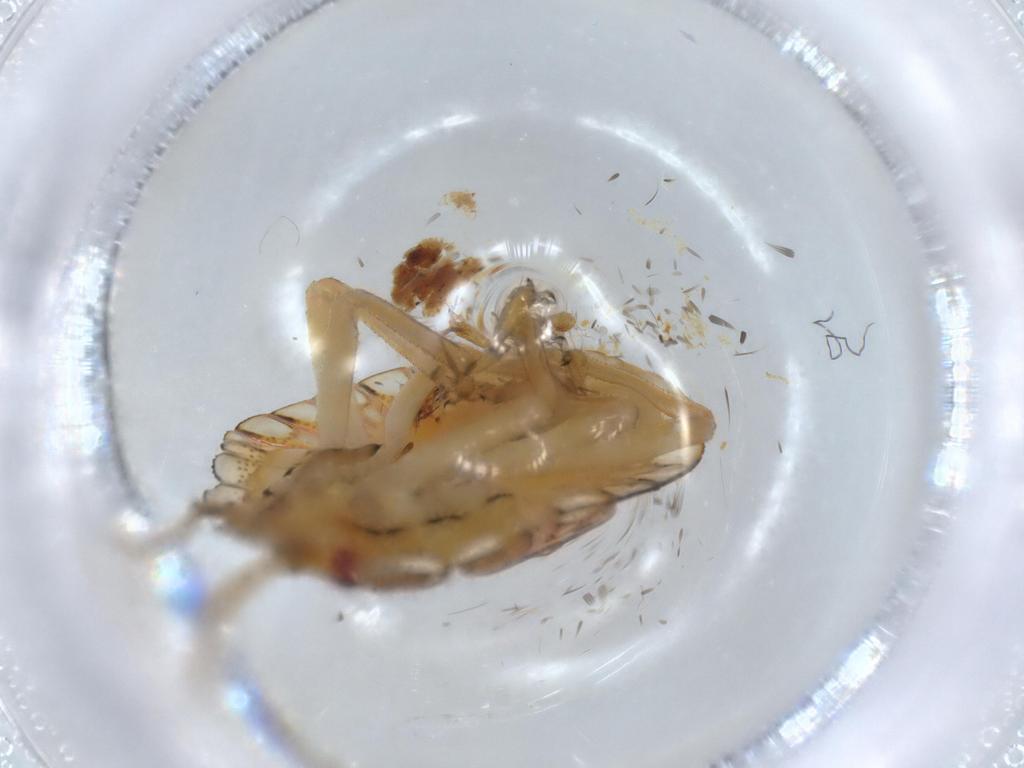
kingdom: Animalia
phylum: Arthropoda
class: Insecta
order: Hemiptera
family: Pentatomidae
